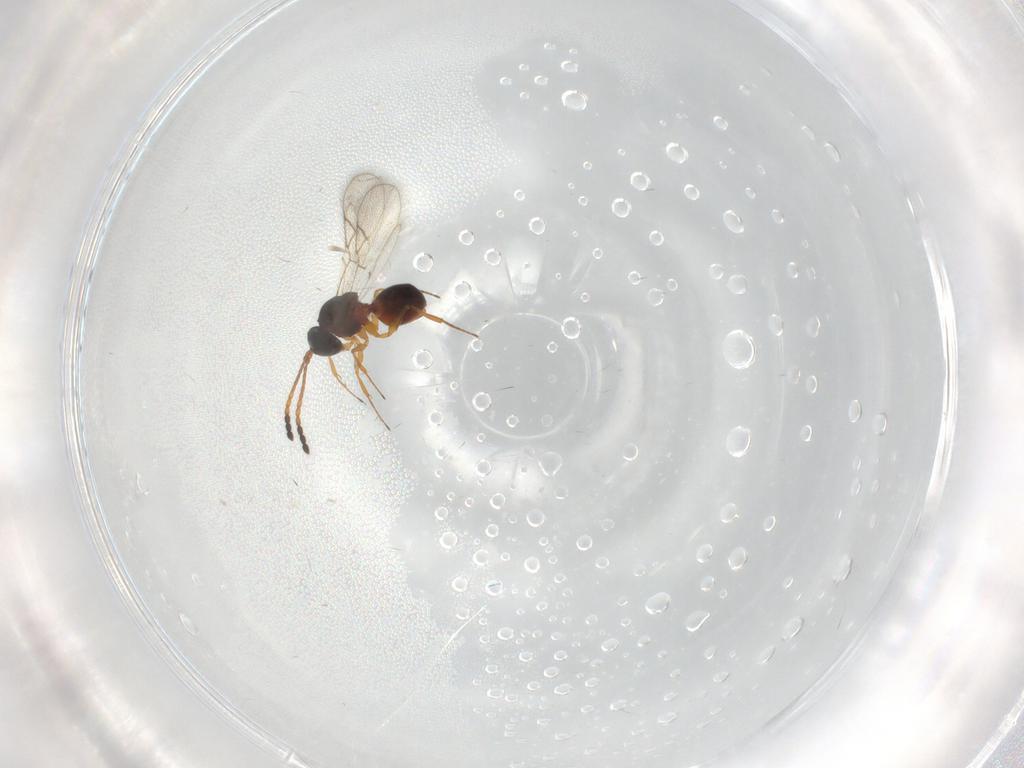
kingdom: Animalia
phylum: Arthropoda
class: Insecta
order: Hymenoptera
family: Figitidae
